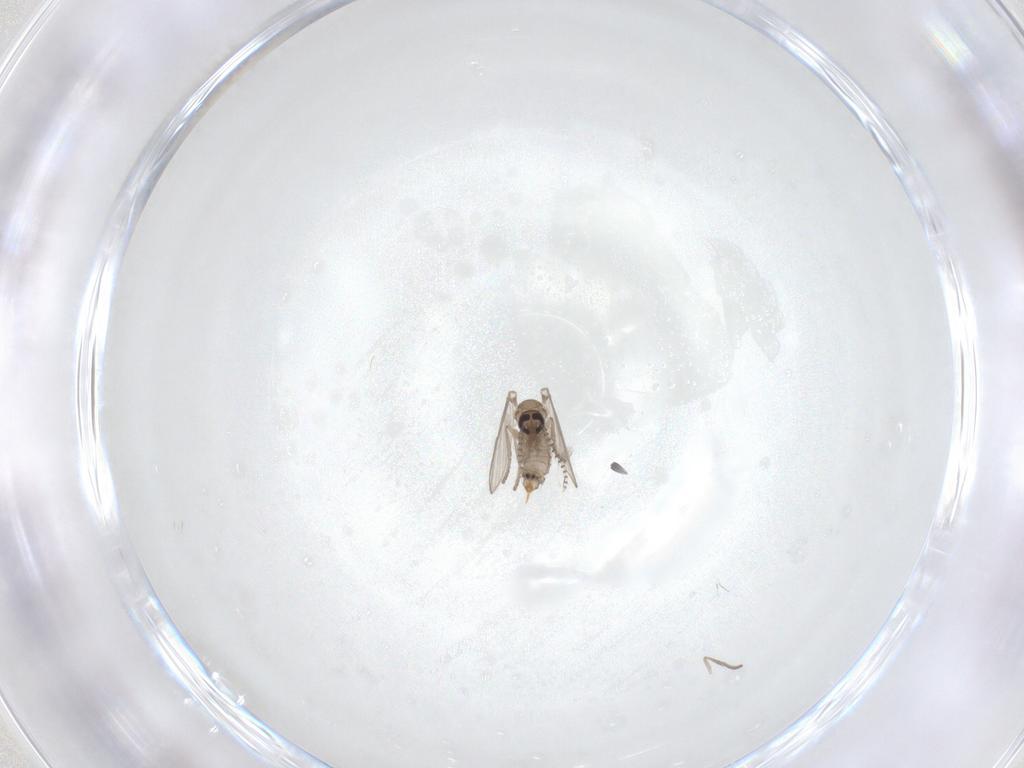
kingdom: Animalia
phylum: Arthropoda
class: Insecta
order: Diptera
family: Psychodidae
